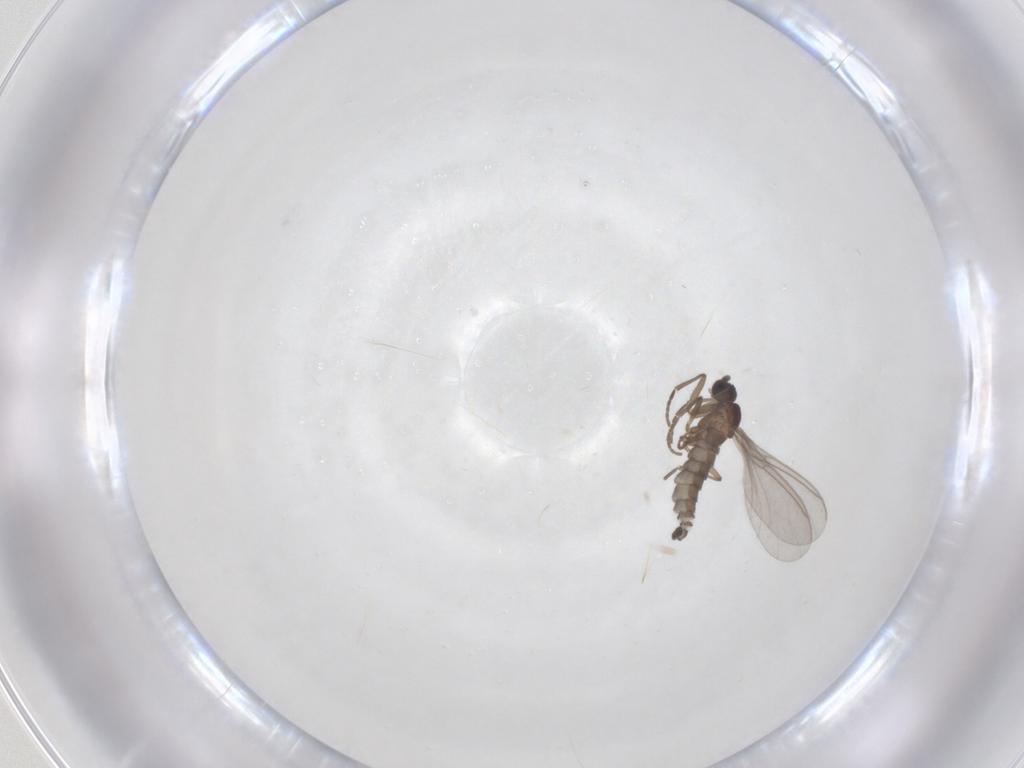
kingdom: Animalia
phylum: Arthropoda
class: Insecta
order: Diptera
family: Sciaridae
